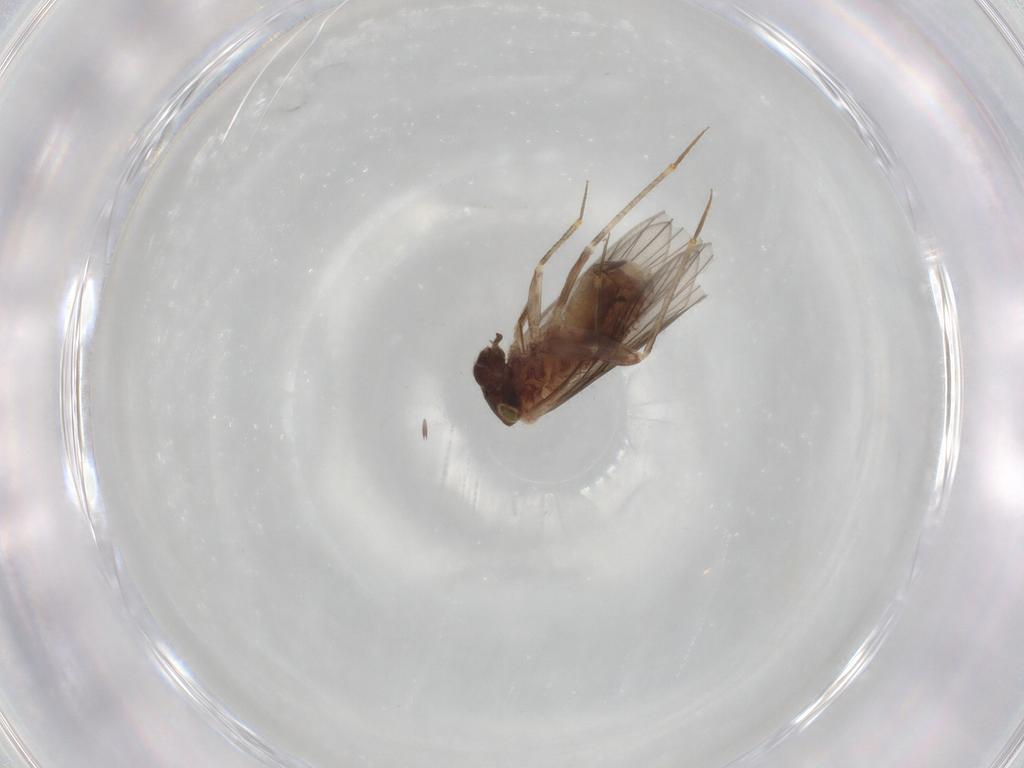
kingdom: Animalia
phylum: Arthropoda
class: Insecta
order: Psocodea
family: Lepidopsocidae
